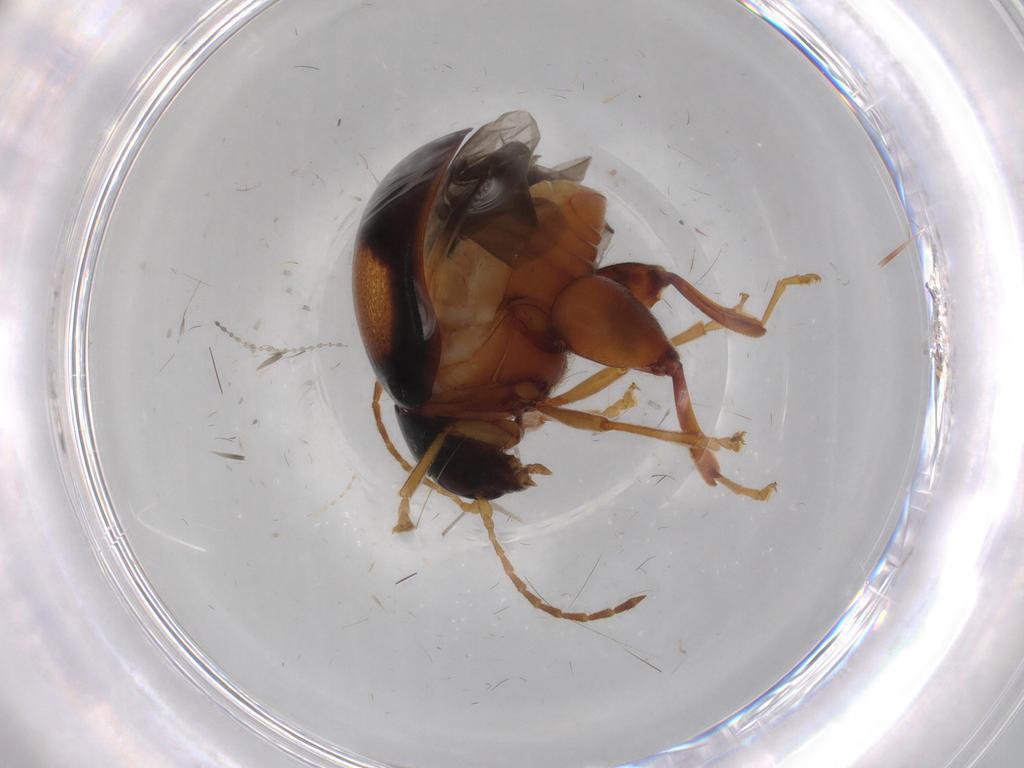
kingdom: Animalia
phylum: Arthropoda
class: Insecta
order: Coleoptera
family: Chrysomelidae
